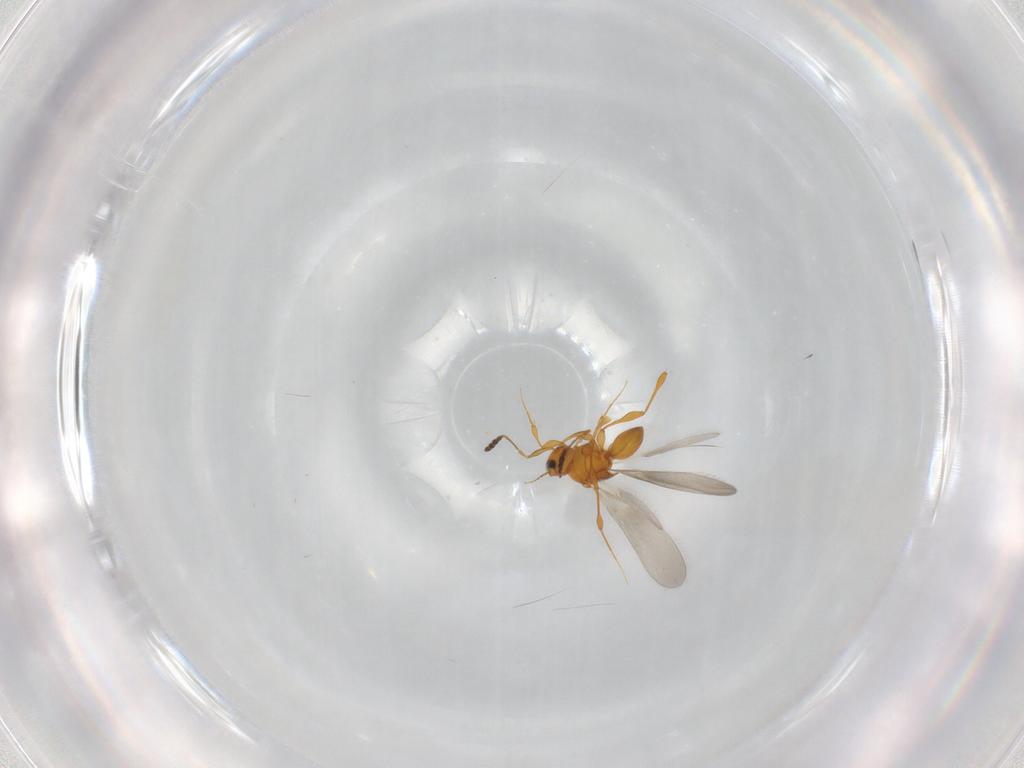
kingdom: Animalia
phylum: Arthropoda
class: Insecta
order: Hymenoptera
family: Platygastridae
